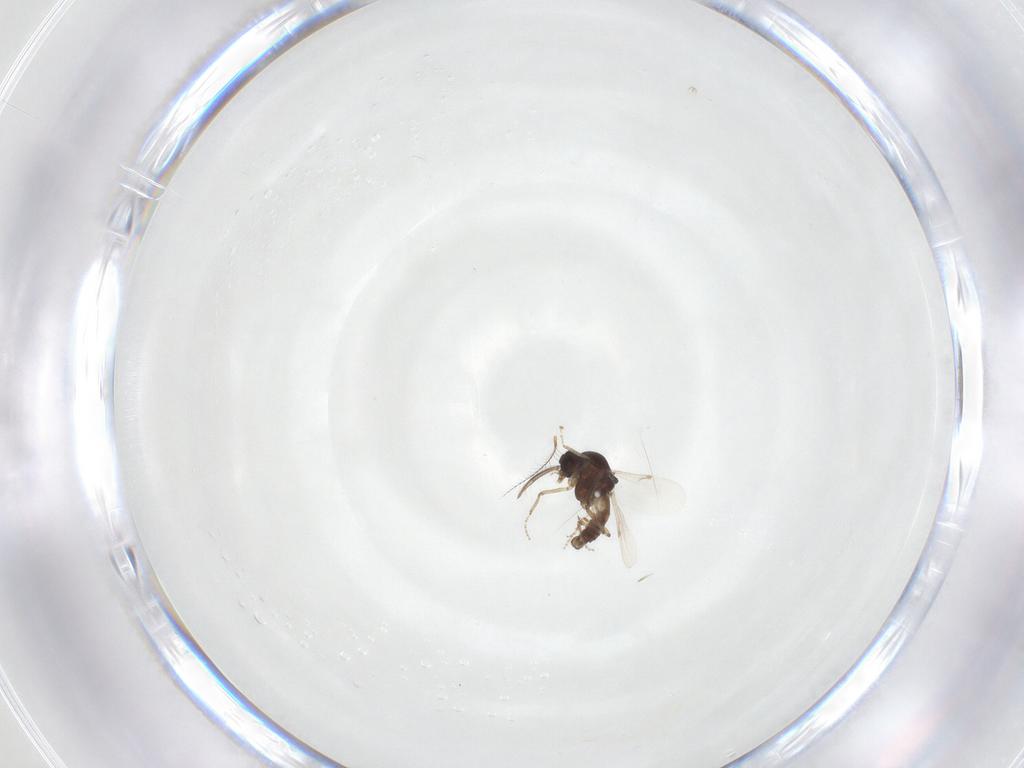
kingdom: Animalia
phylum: Arthropoda
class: Insecta
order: Diptera
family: Ceratopogonidae
